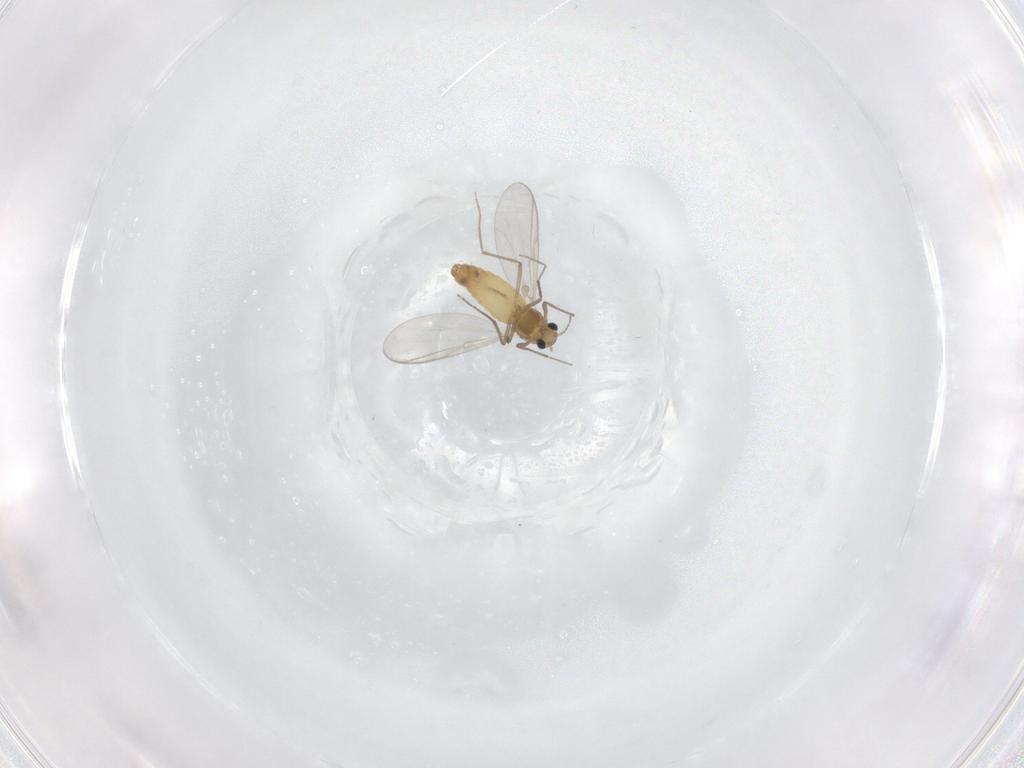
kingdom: Animalia
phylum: Arthropoda
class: Insecta
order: Diptera
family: Chironomidae
